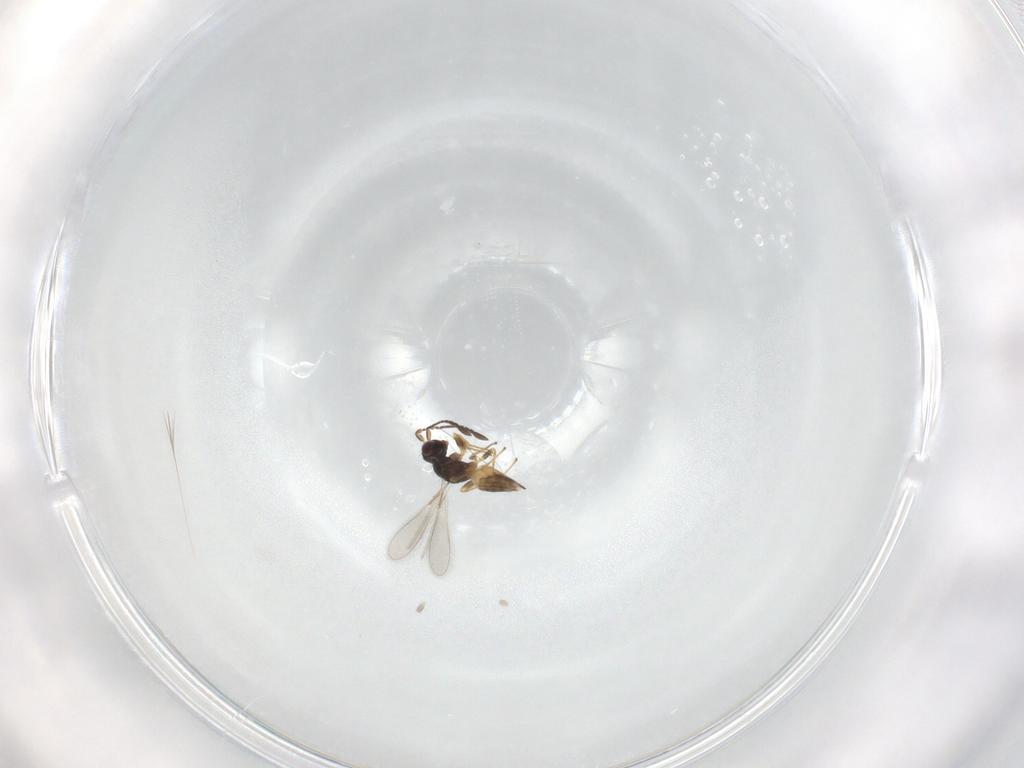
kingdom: Animalia
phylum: Arthropoda
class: Insecta
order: Hymenoptera
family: Mymaridae
